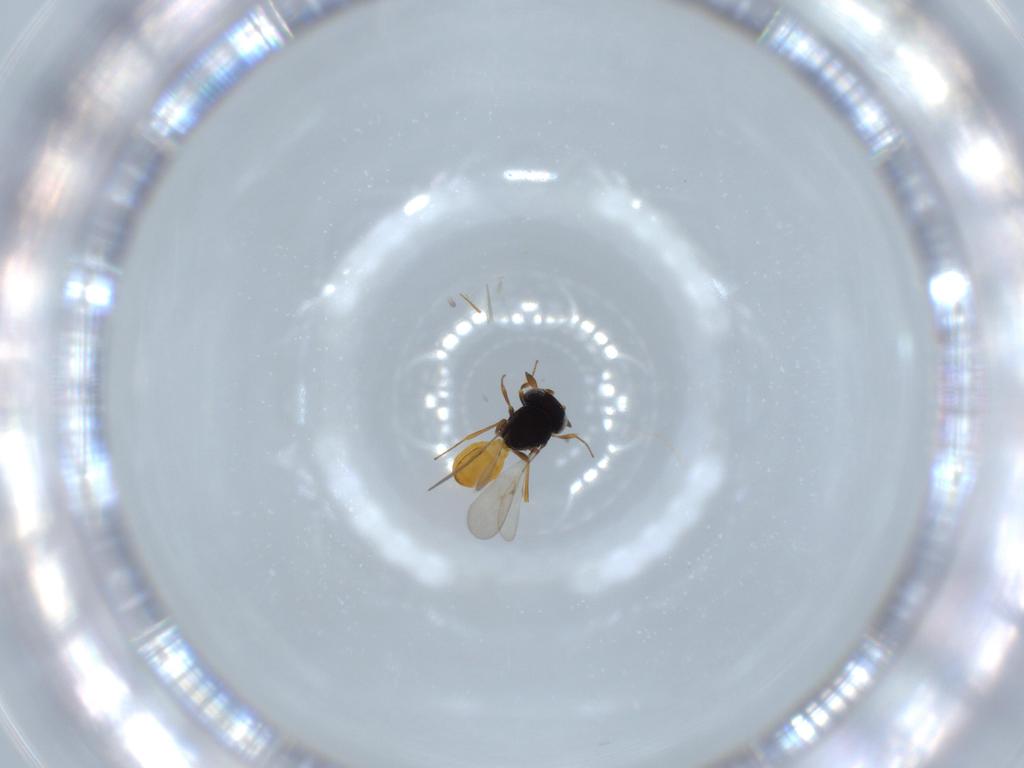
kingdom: Animalia
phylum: Arthropoda
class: Insecta
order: Hymenoptera
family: Scelionidae
